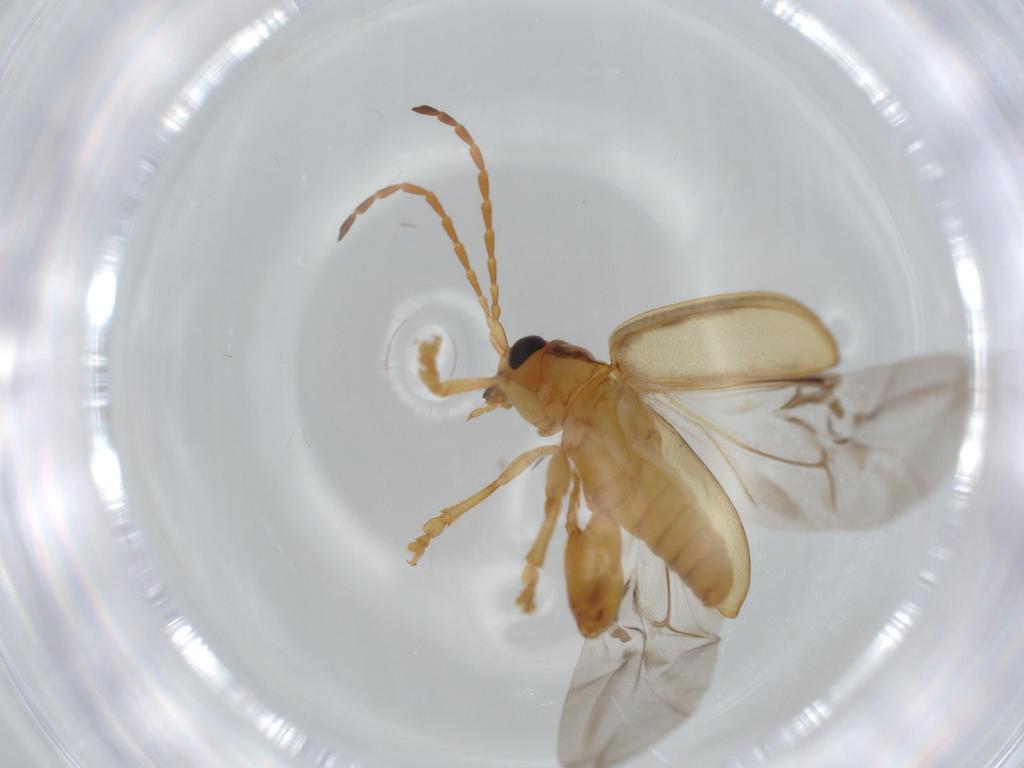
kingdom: Animalia
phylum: Arthropoda
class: Insecta
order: Coleoptera
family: Chrysomelidae
